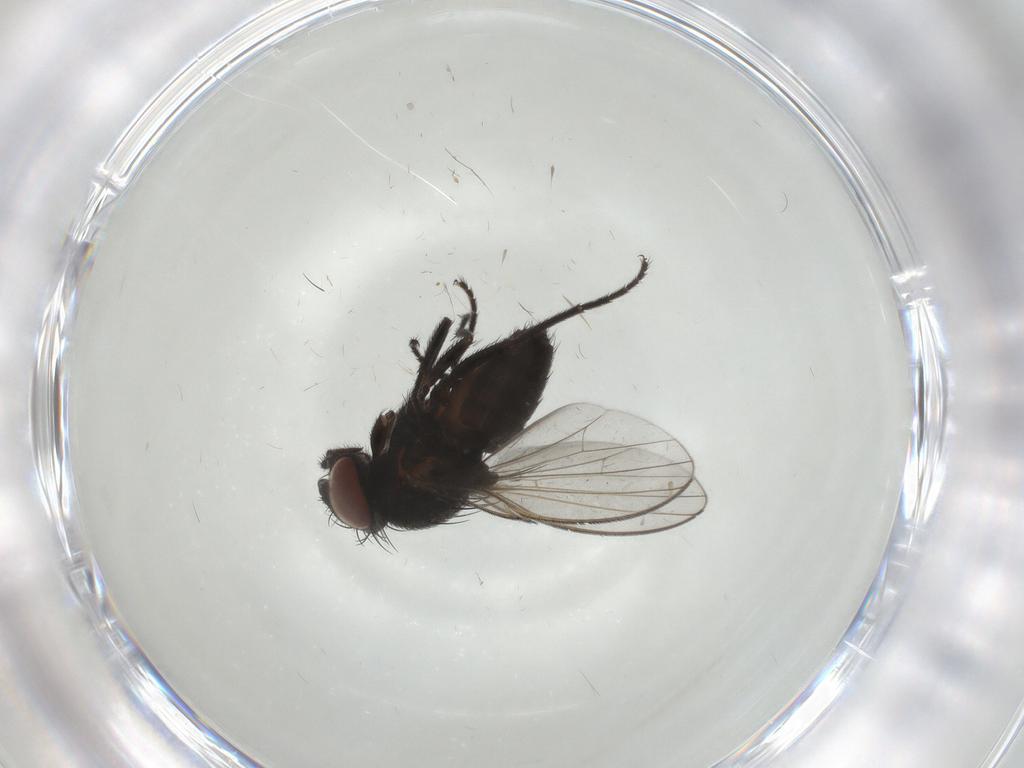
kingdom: Animalia
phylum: Arthropoda
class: Insecta
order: Diptera
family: Milichiidae
